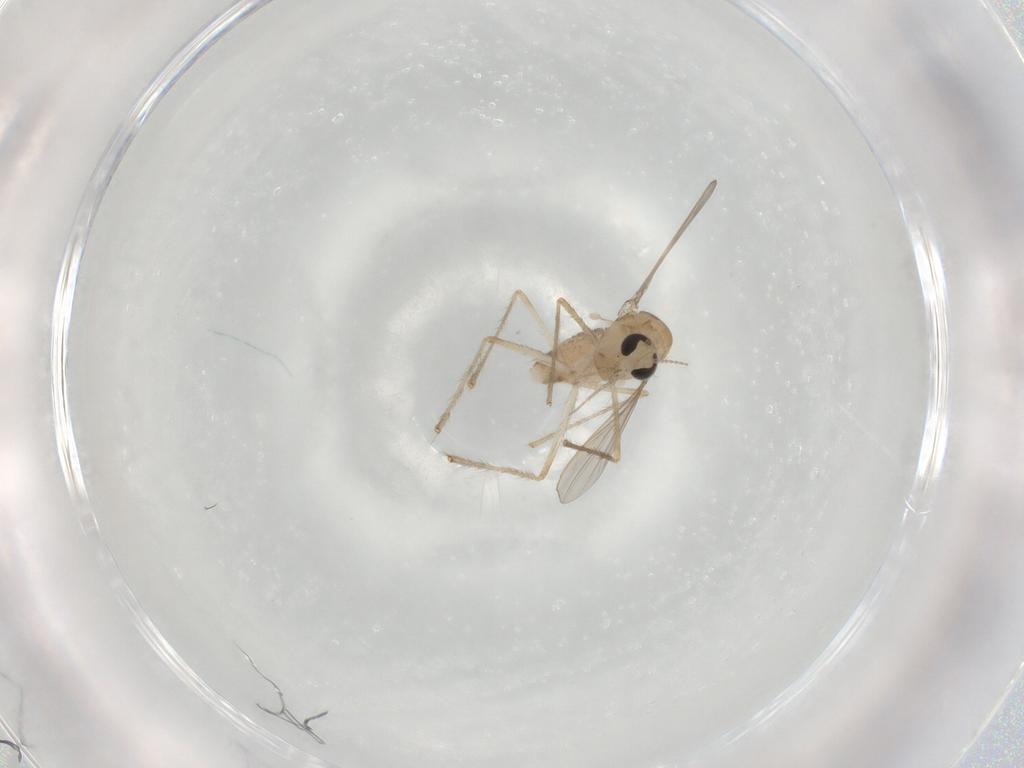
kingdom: Animalia
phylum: Arthropoda
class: Insecta
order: Diptera
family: Chironomidae
